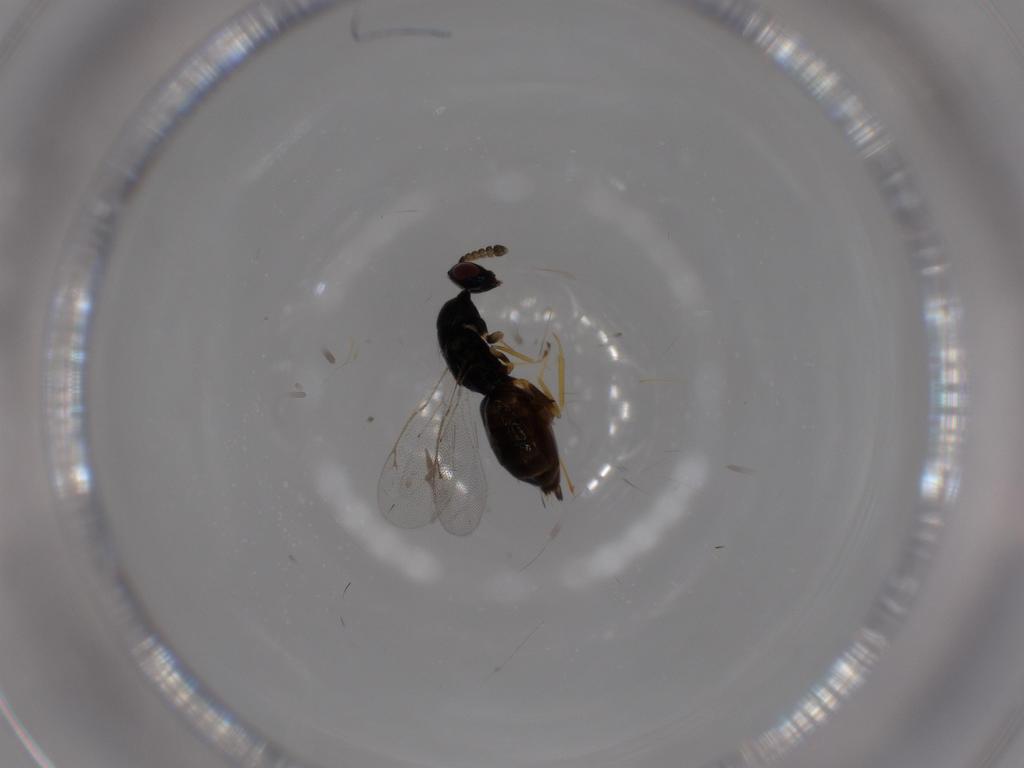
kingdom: Animalia
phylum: Arthropoda
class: Insecta
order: Hymenoptera
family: Eulophidae
